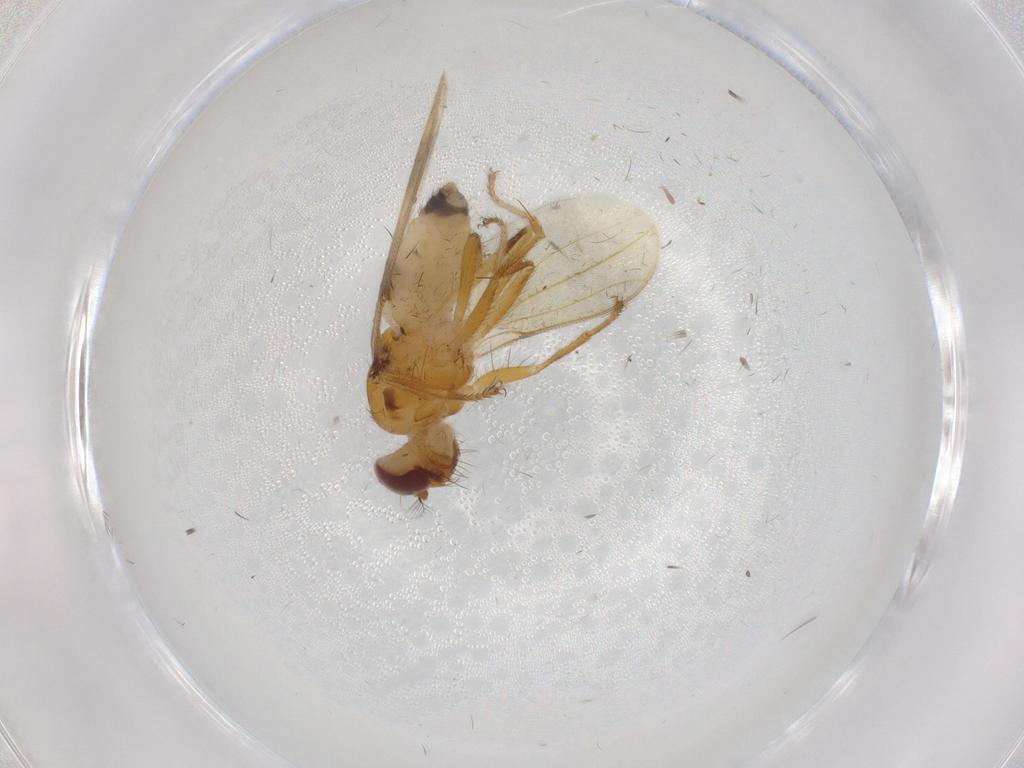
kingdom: Animalia
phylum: Arthropoda
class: Insecta
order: Diptera
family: Periscelididae
